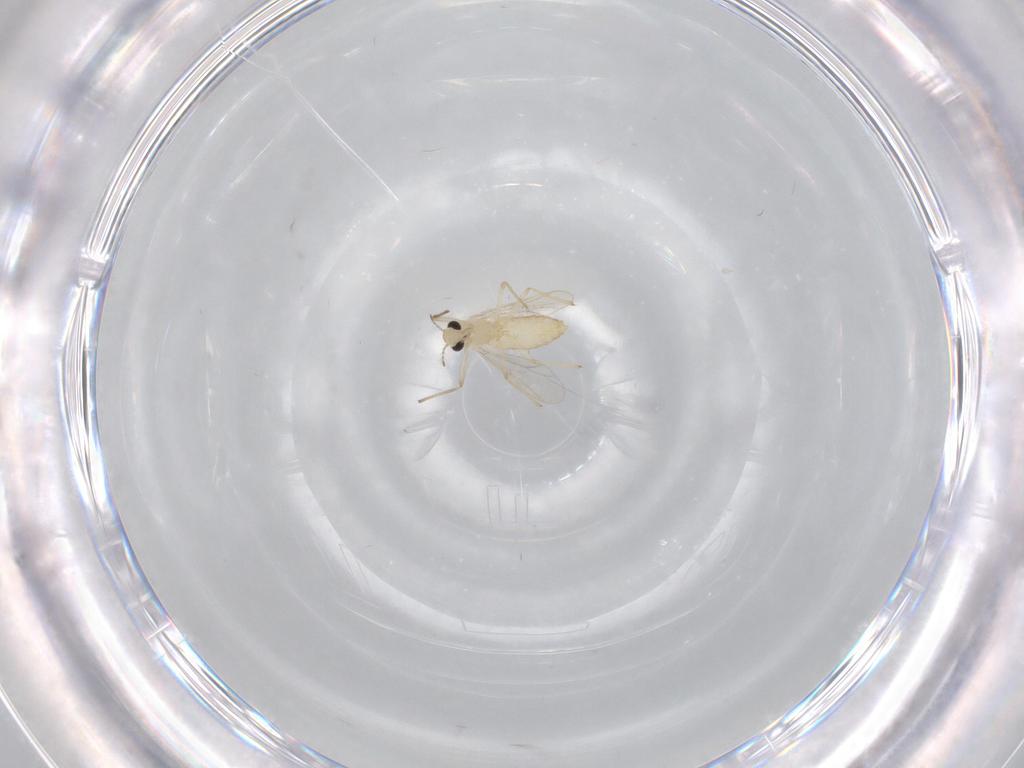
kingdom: Animalia
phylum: Arthropoda
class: Insecta
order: Diptera
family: Chironomidae
